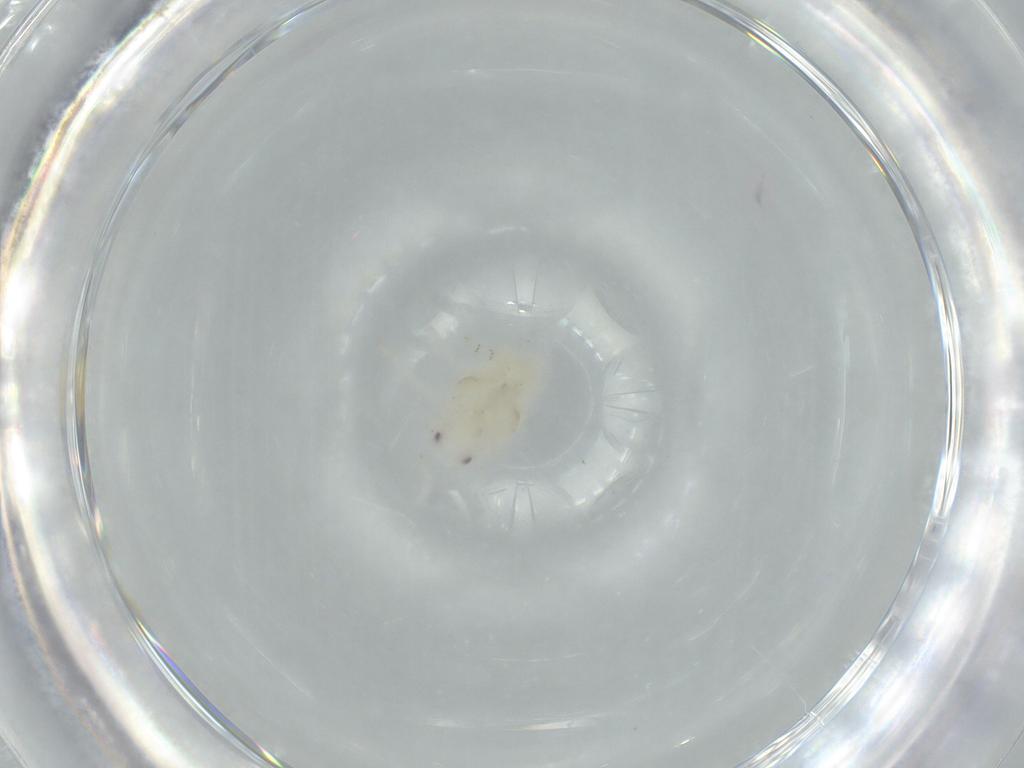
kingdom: Animalia
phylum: Arthropoda
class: Insecta
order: Hemiptera
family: Flatidae
